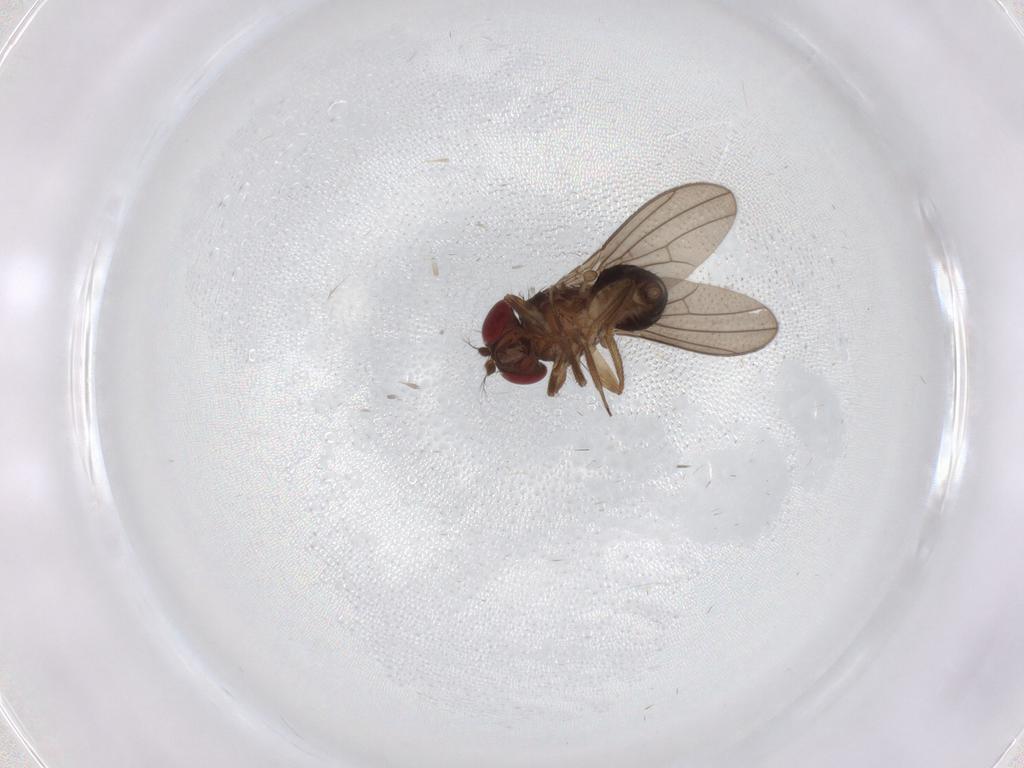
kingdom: Animalia
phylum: Arthropoda
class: Insecta
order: Diptera
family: Drosophilidae
